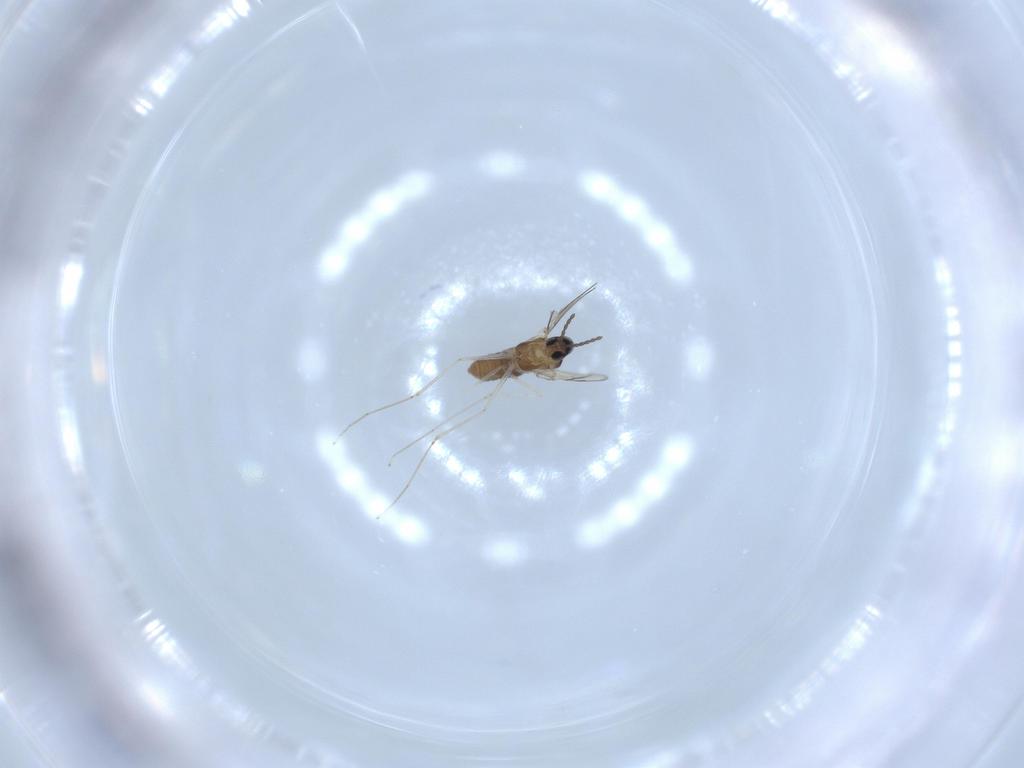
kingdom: Animalia
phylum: Arthropoda
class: Insecta
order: Diptera
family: Cecidomyiidae
